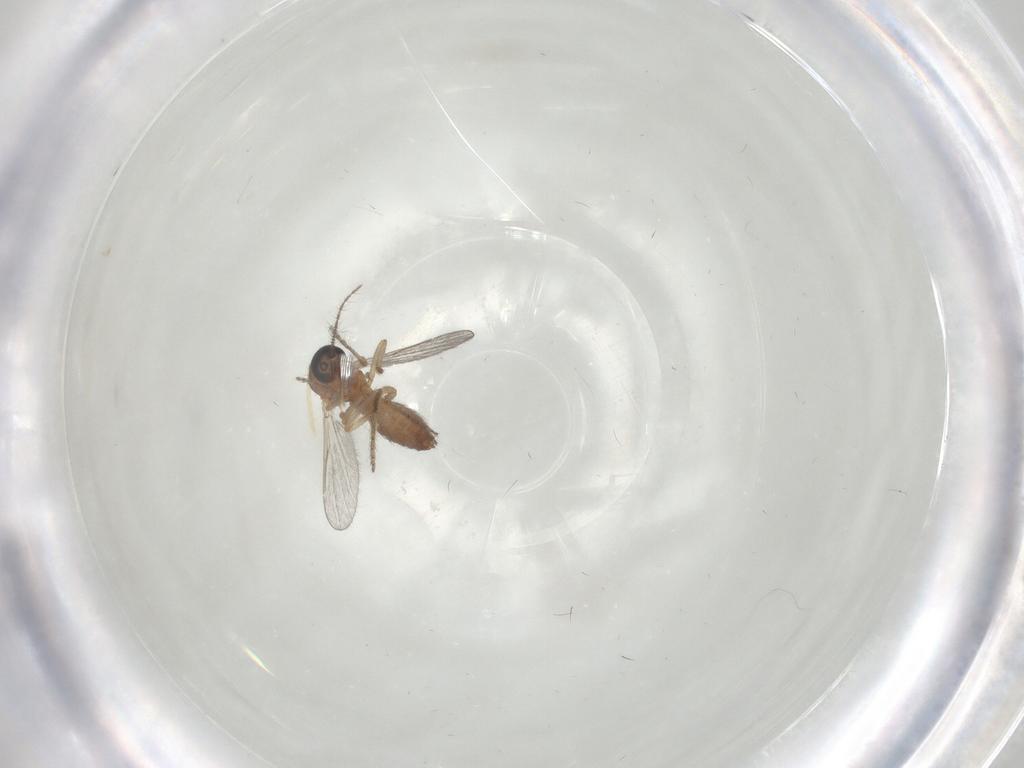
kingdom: Animalia
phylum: Arthropoda
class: Insecta
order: Diptera
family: Ceratopogonidae
